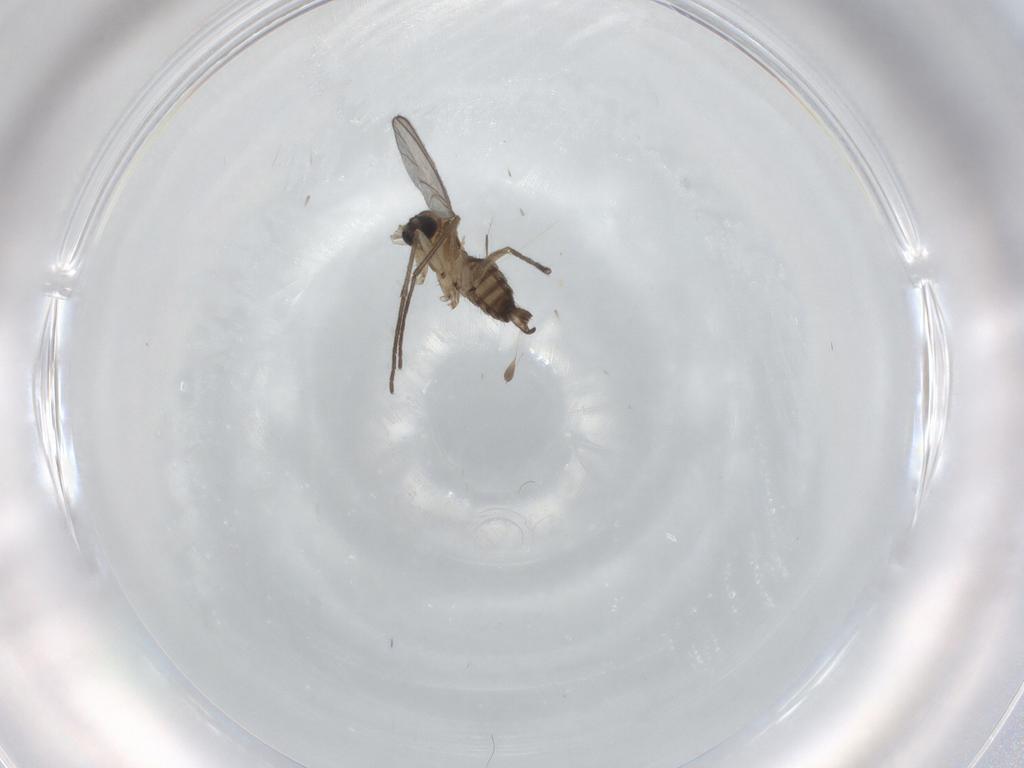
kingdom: Animalia
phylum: Arthropoda
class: Insecta
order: Diptera
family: Sciaridae
